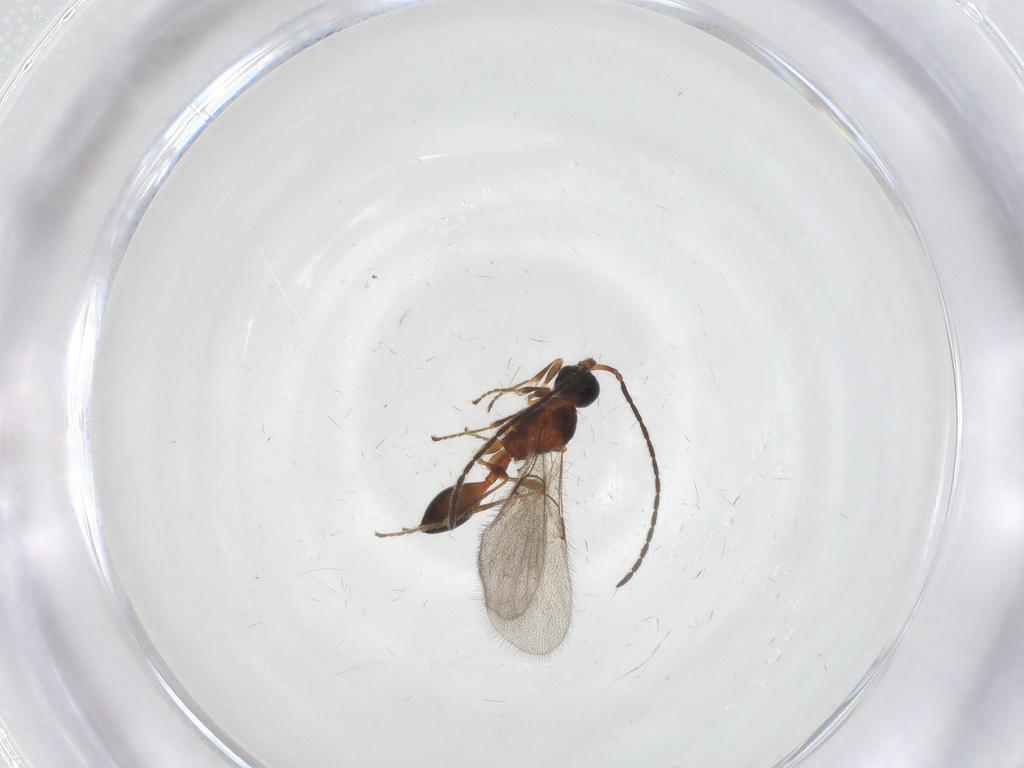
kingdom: Animalia
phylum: Arthropoda
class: Insecta
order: Hymenoptera
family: Diapriidae
